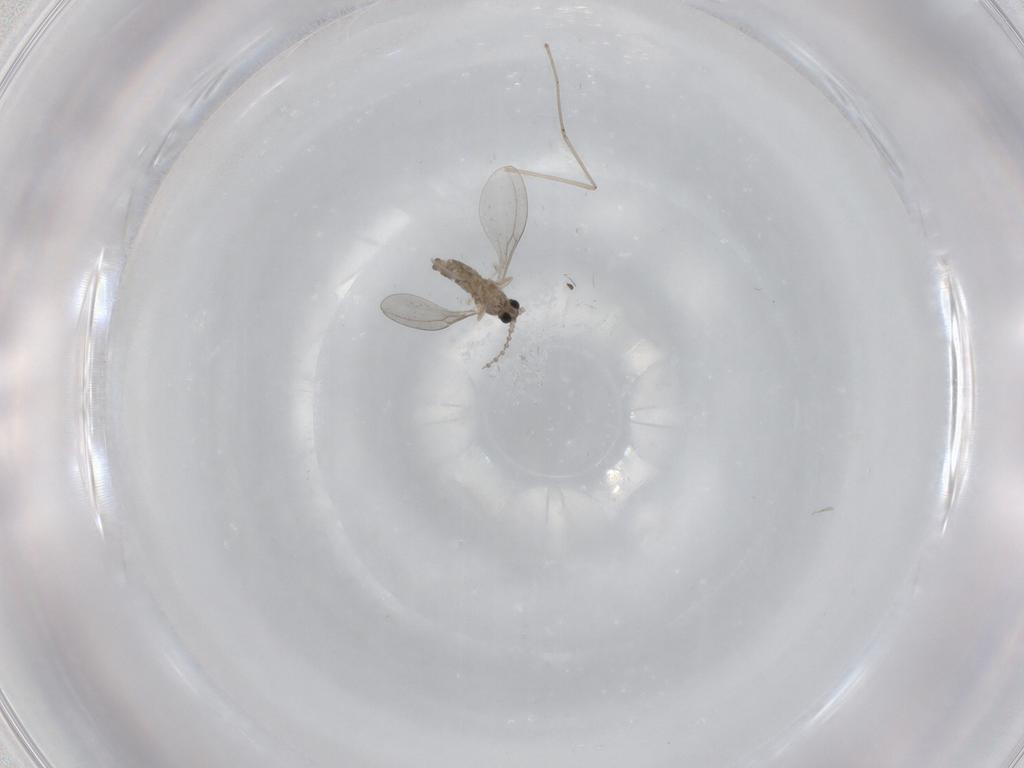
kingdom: Animalia
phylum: Arthropoda
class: Insecta
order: Diptera
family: Cecidomyiidae
